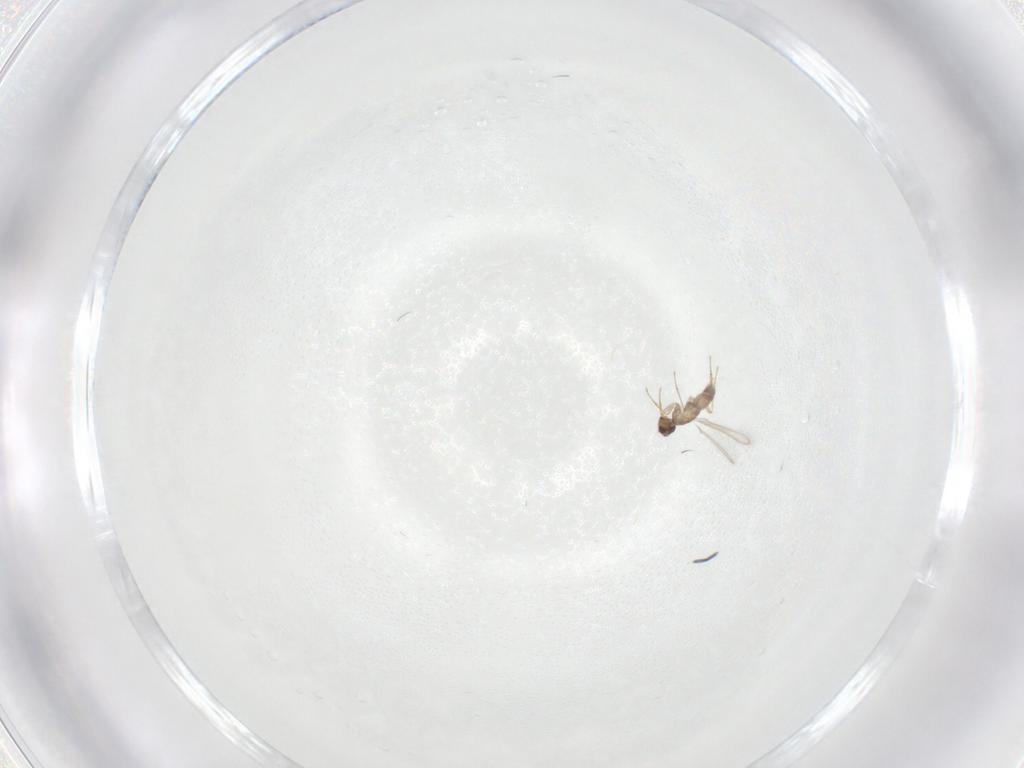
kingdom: Animalia
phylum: Arthropoda
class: Insecta
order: Hymenoptera
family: Mymaridae
